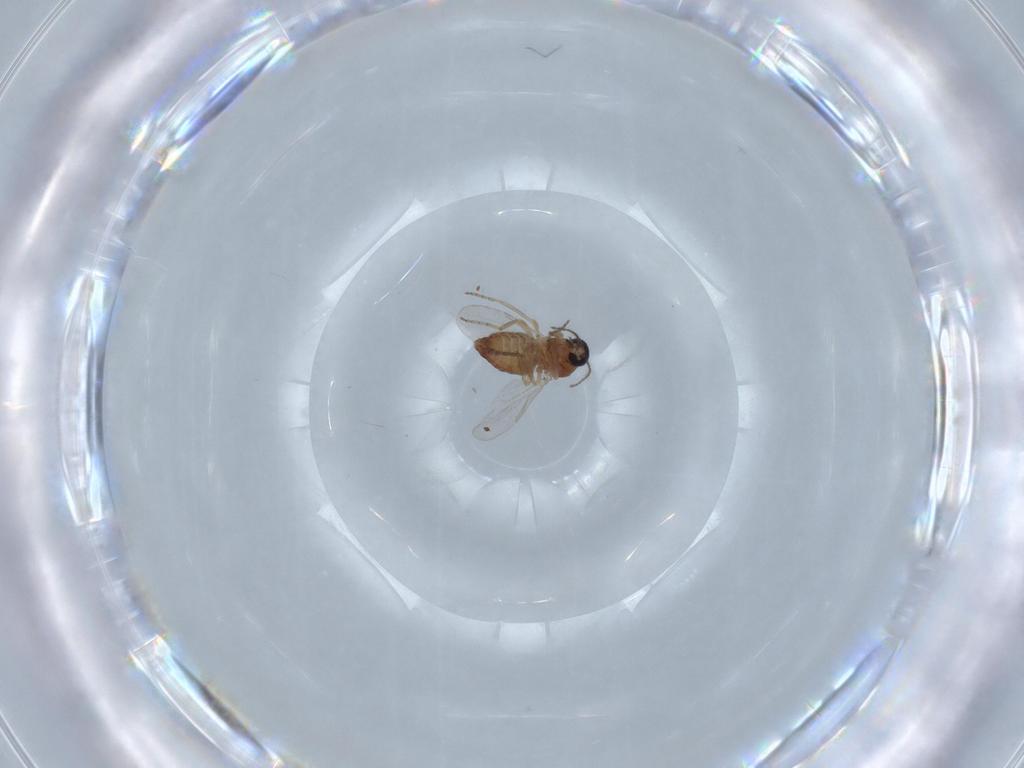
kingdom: Animalia
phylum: Arthropoda
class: Insecta
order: Diptera
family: Ceratopogonidae
